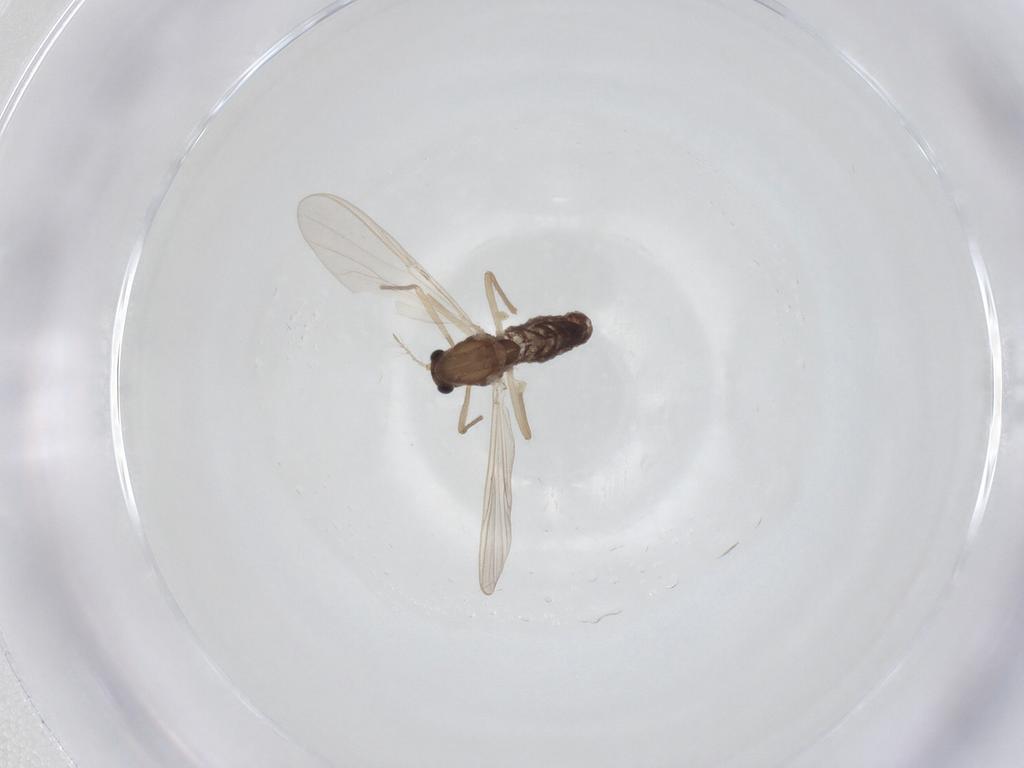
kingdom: Animalia
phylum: Arthropoda
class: Insecta
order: Diptera
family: Chironomidae
